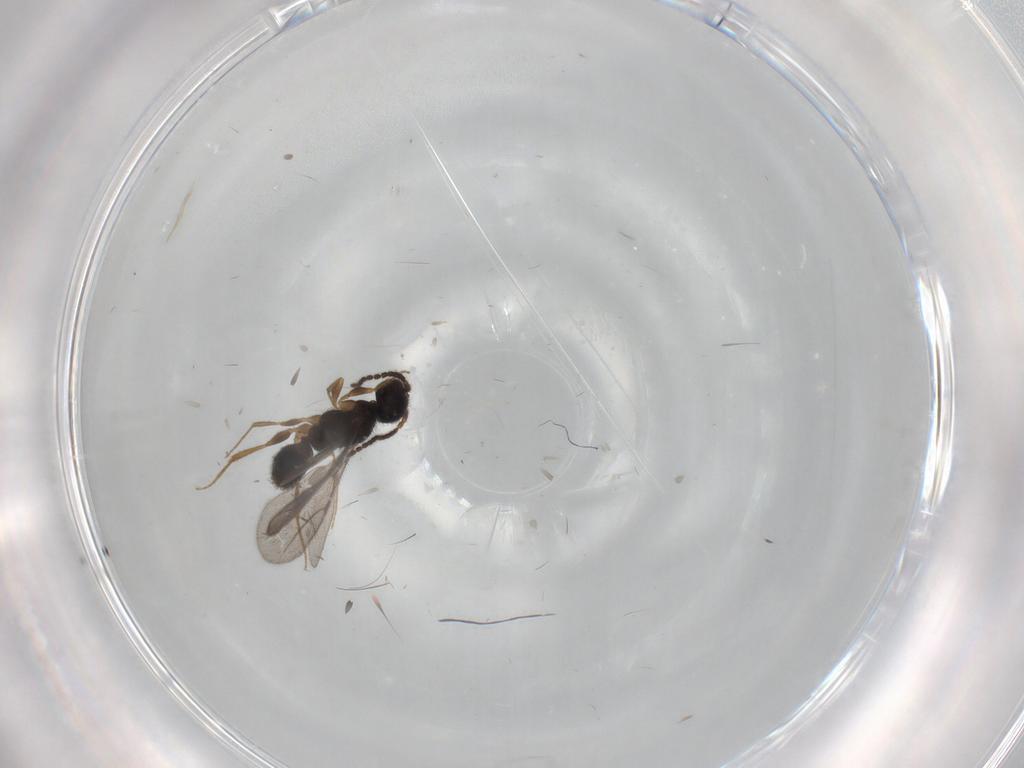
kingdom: Animalia
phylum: Arthropoda
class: Insecta
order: Hymenoptera
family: Bethylidae
